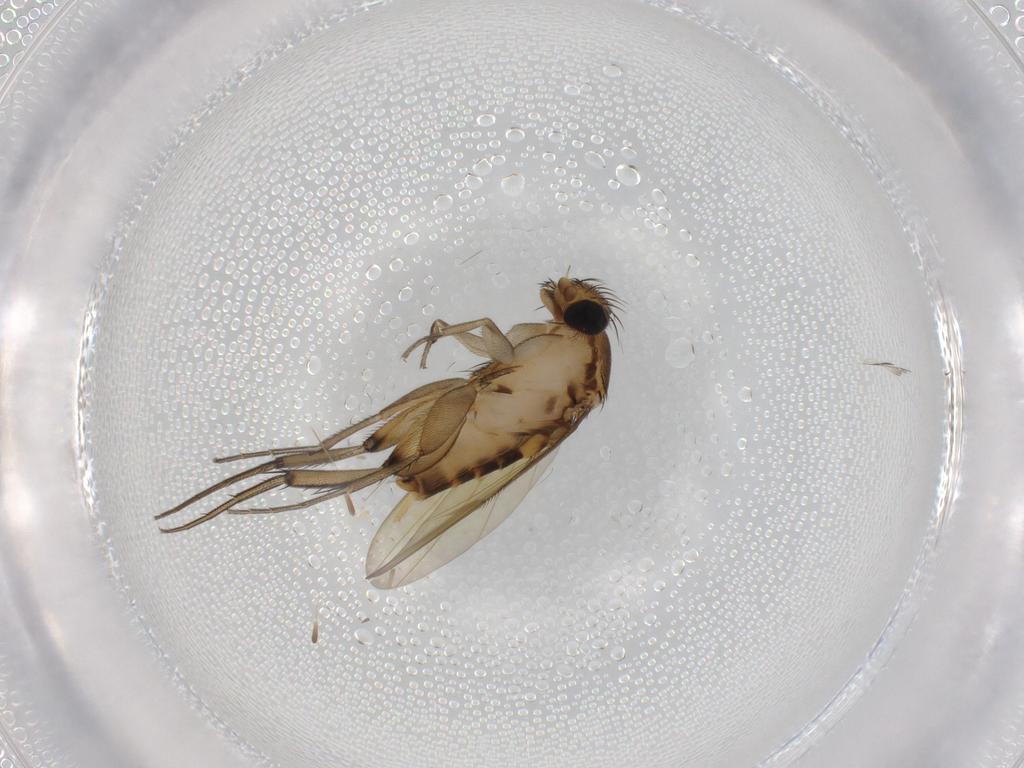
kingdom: Animalia
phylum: Arthropoda
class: Insecta
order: Diptera
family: Phoridae
